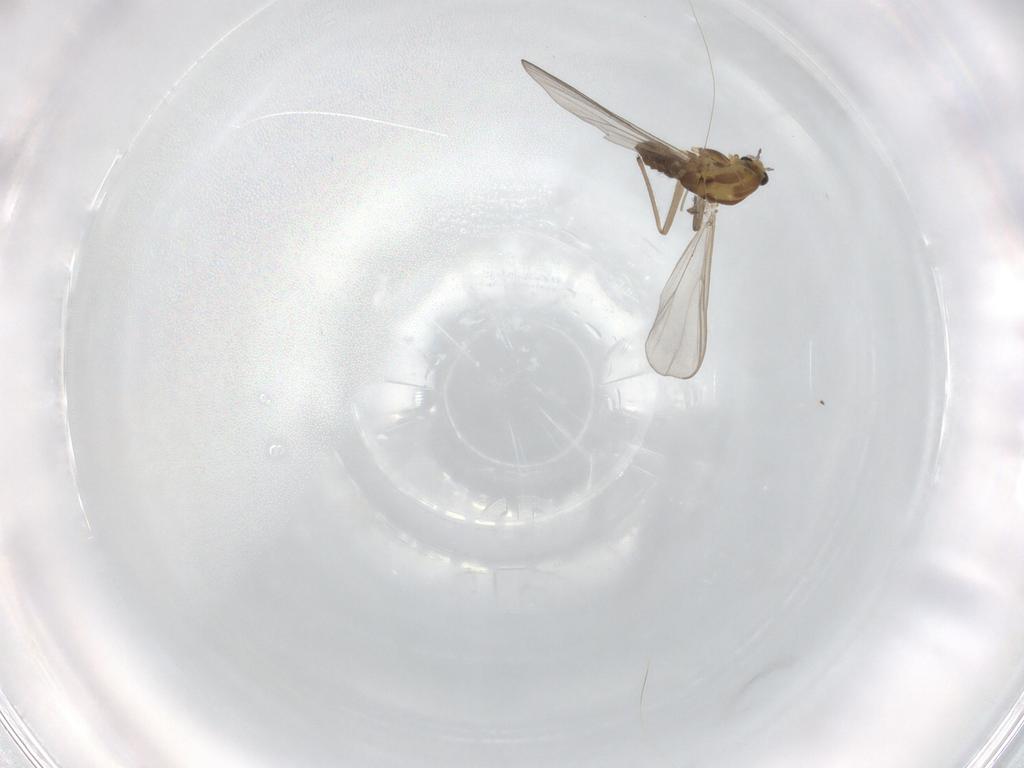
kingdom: Animalia
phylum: Arthropoda
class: Insecta
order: Diptera
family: Chironomidae
